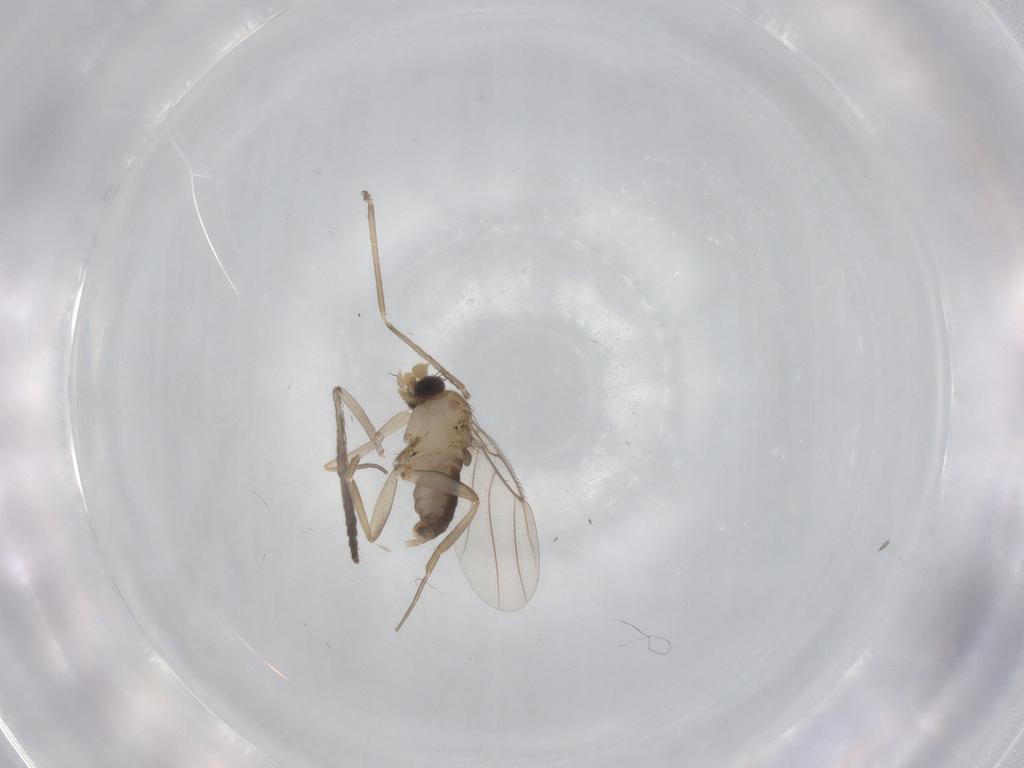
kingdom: Animalia
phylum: Arthropoda
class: Insecta
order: Diptera
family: Cecidomyiidae
